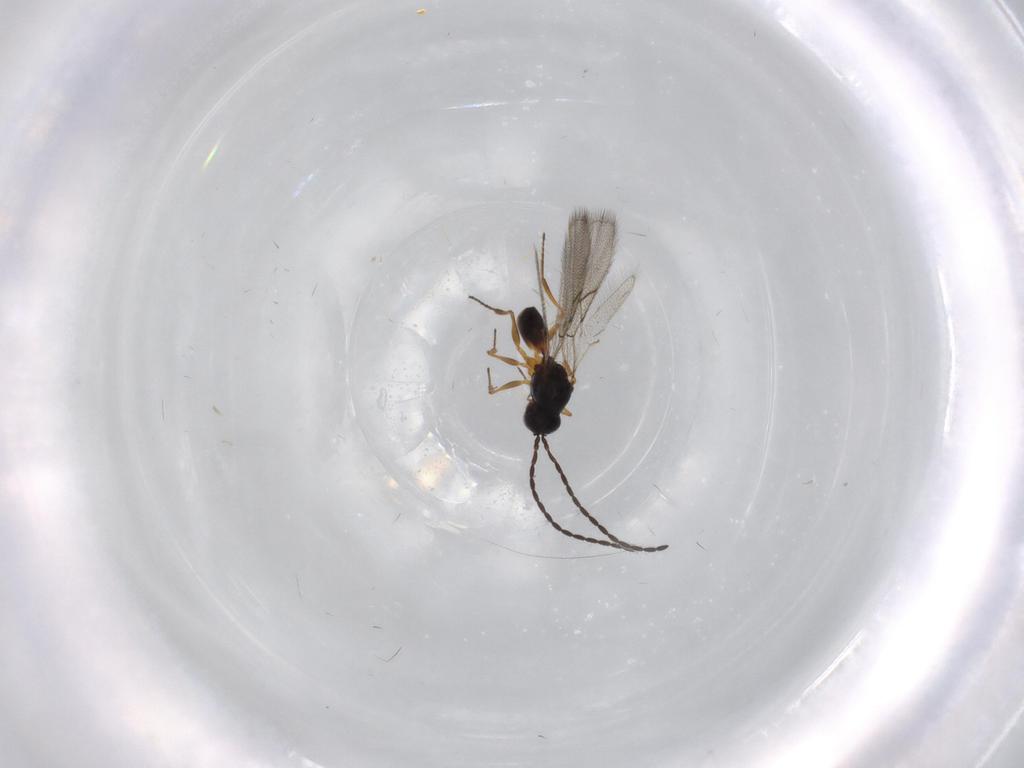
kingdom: Animalia
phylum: Arthropoda
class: Insecta
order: Hymenoptera
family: Figitidae
